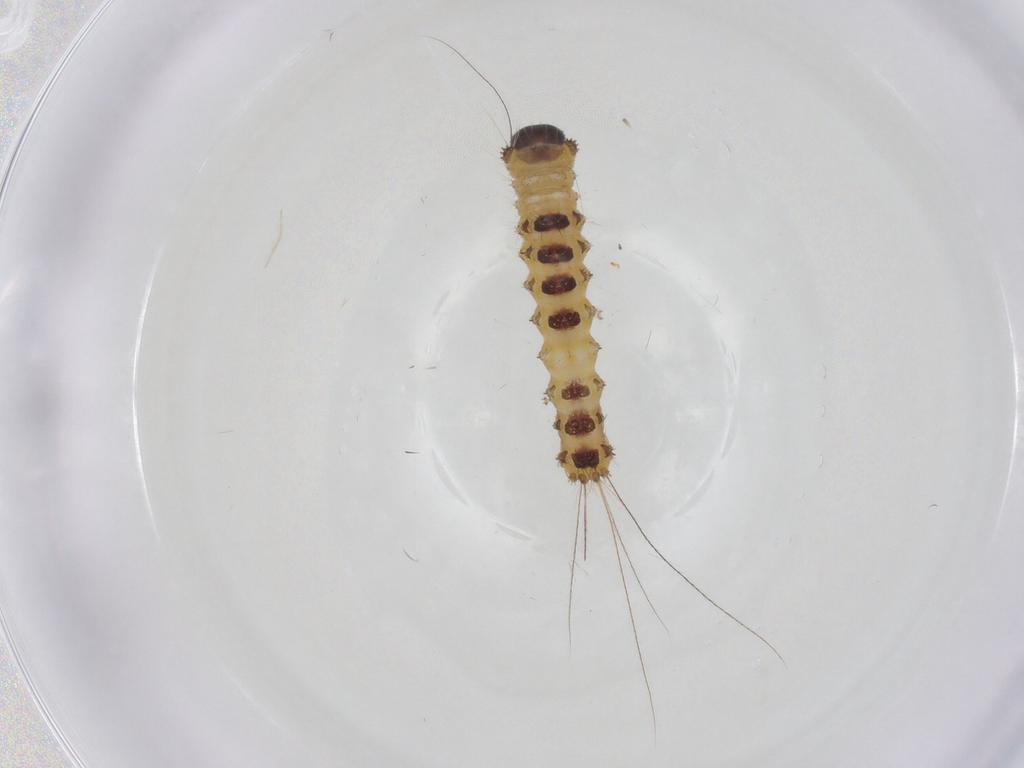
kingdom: Animalia
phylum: Arthropoda
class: Insecta
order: Lepidoptera
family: Erebidae
